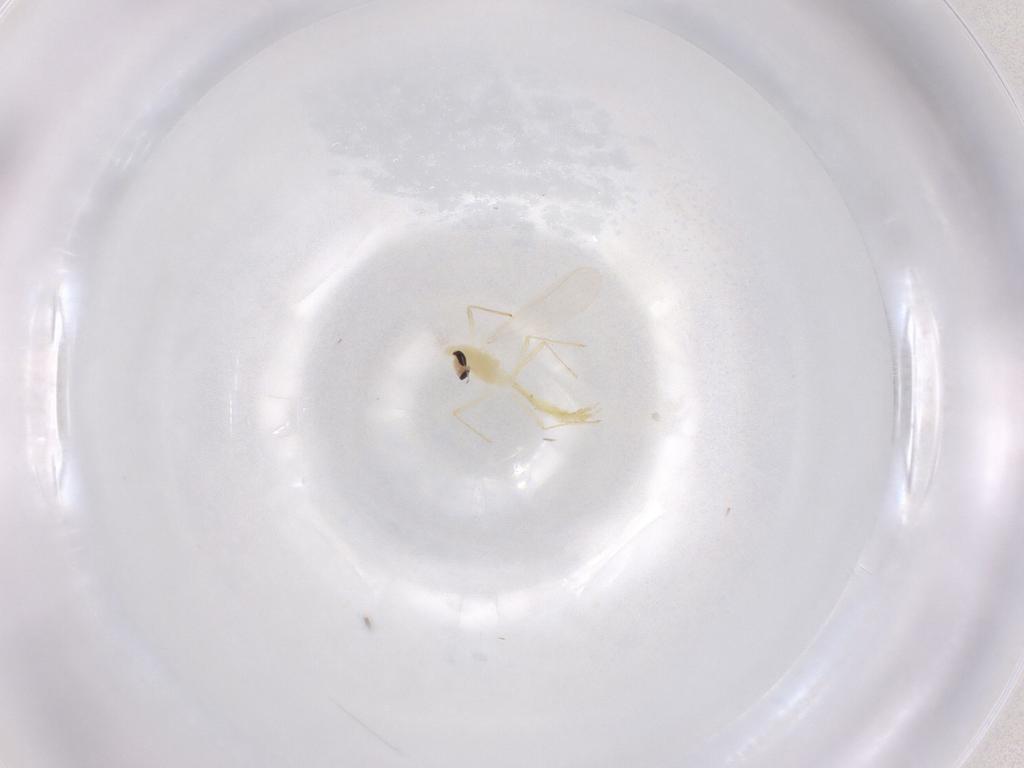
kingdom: Animalia
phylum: Arthropoda
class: Insecta
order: Diptera
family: Chironomidae
